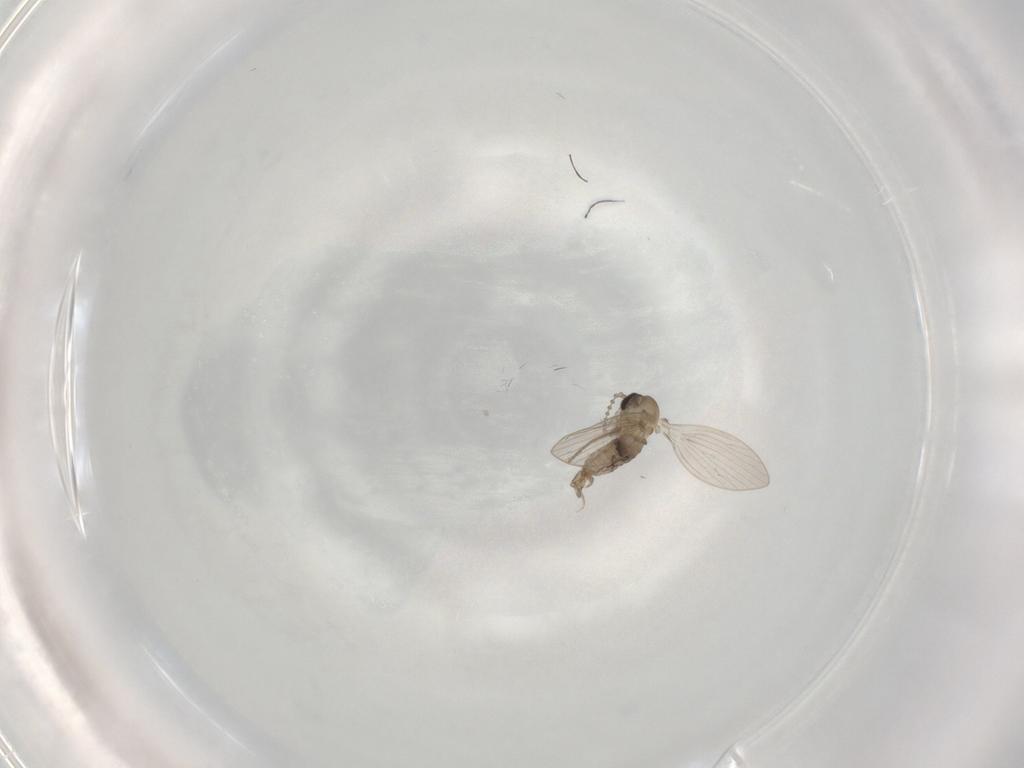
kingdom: Animalia
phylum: Arthropoda
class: Insecta
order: Diptera
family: Psychodidae
